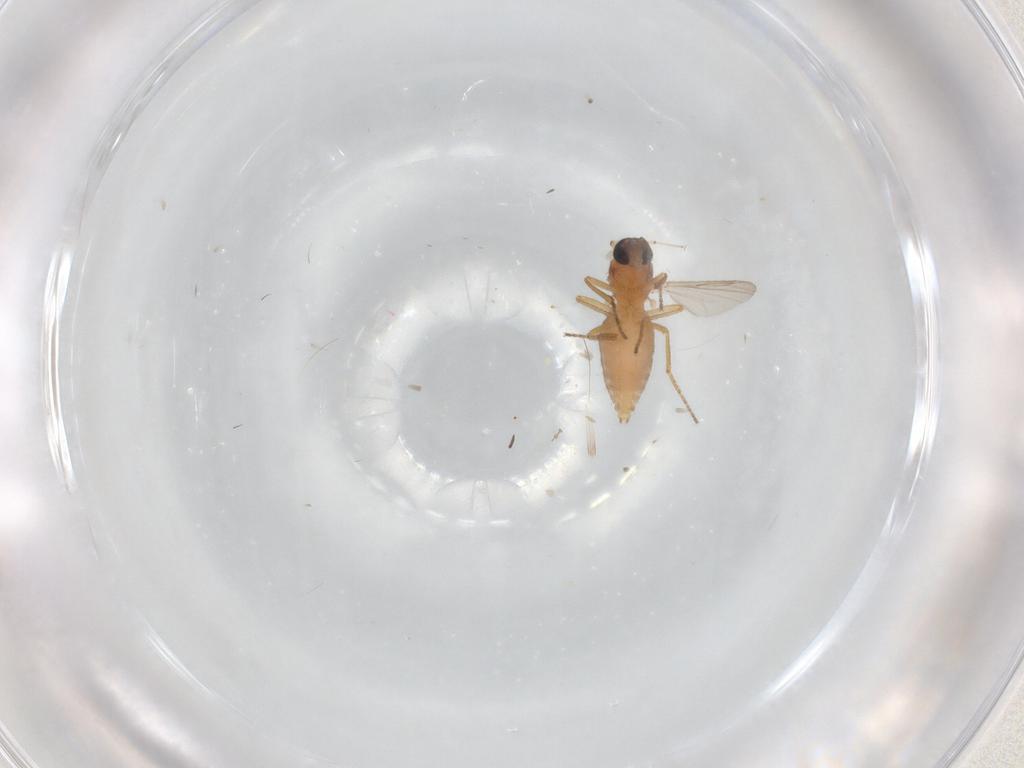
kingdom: Animalia
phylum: Arthropoda
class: Insecta
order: Diptera
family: Chironomidae
